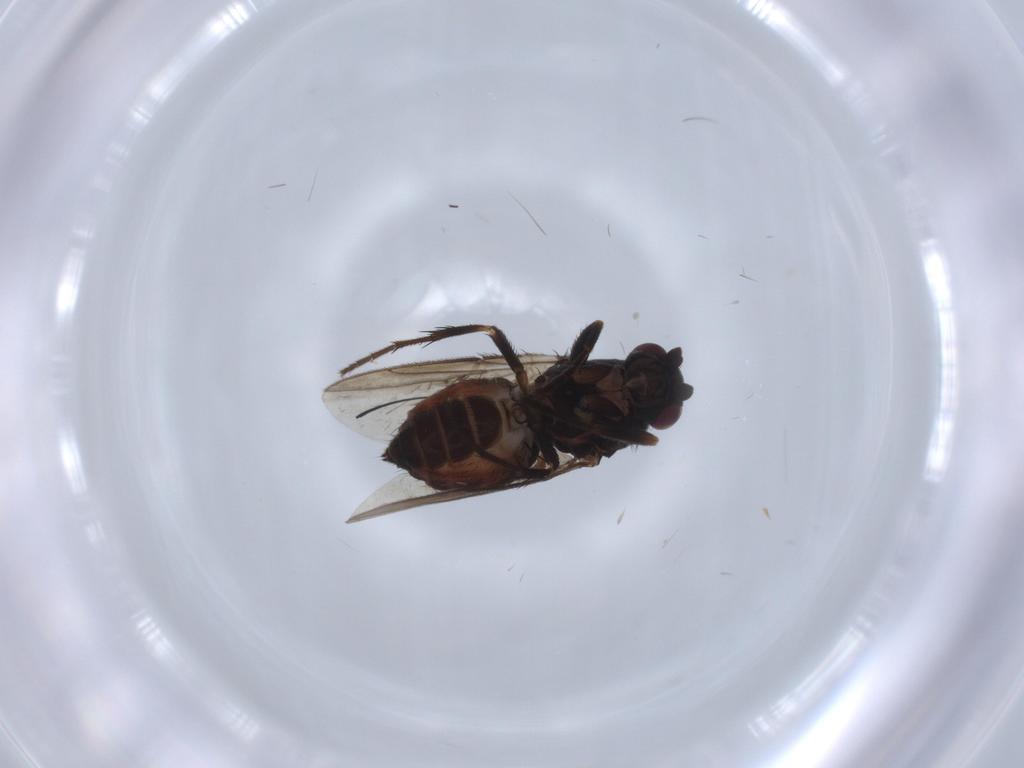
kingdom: Animalia
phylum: Arthropoda
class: Insecta
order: Diptera
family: Sphaeroceridae
